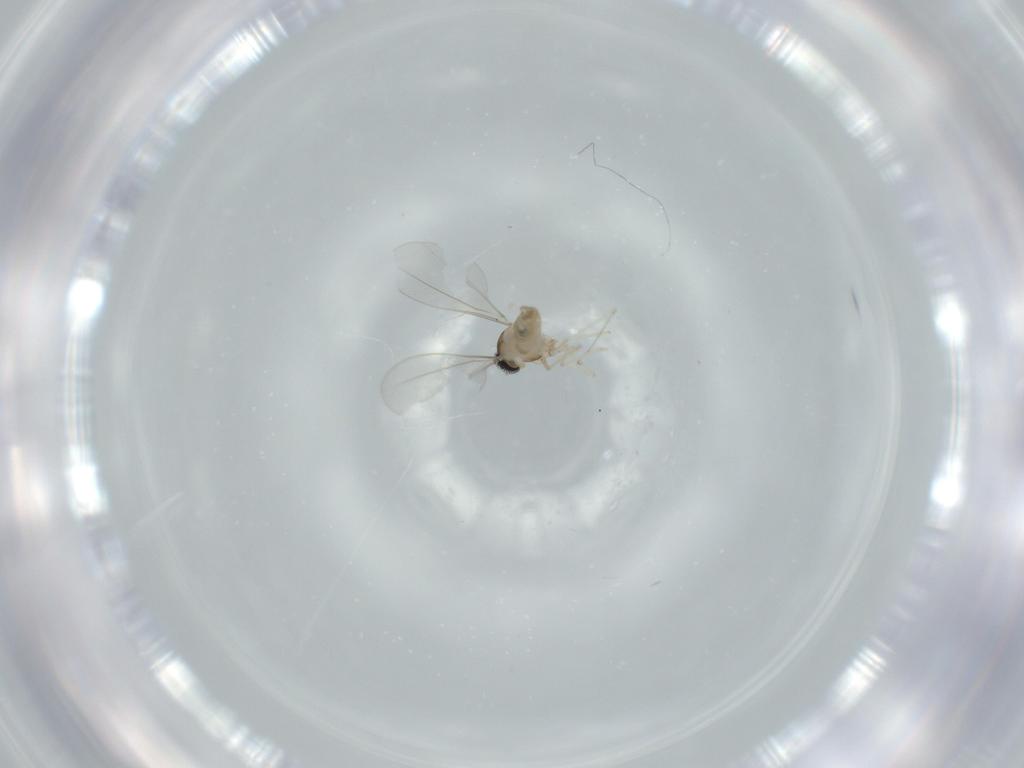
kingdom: Animalia
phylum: Arthropoda
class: Insecta
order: Diptera
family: Cecidomyiidae
